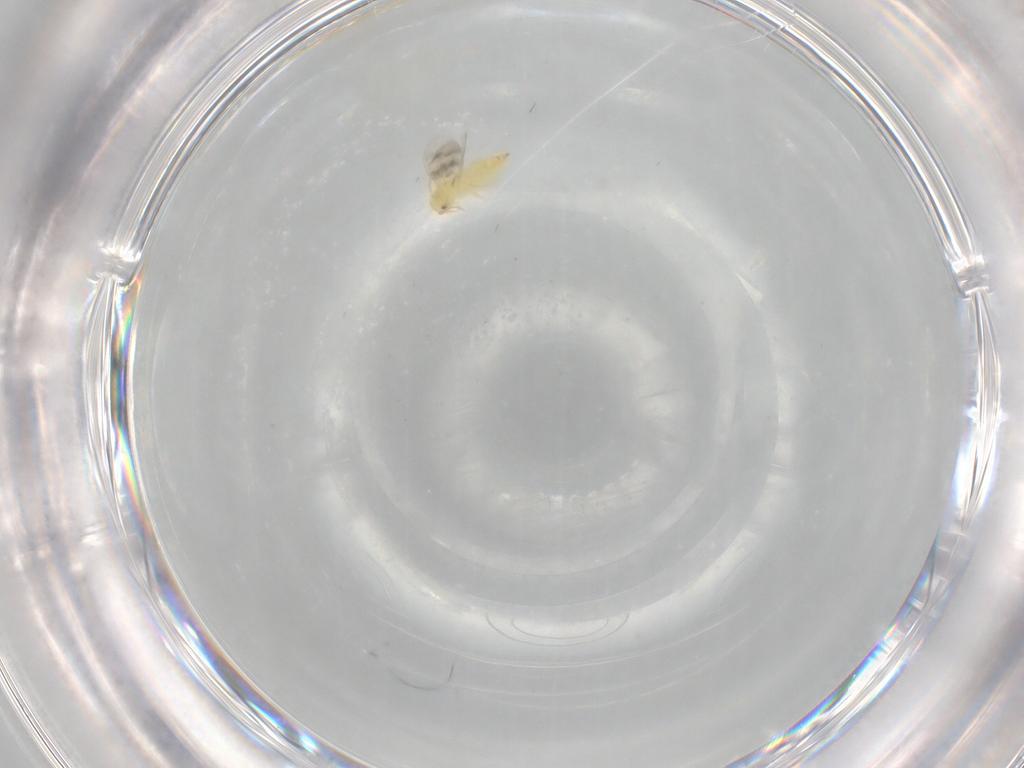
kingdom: Animalia
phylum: Arthropoda
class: Insecta
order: Hemiptera
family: Aleyrodidae
